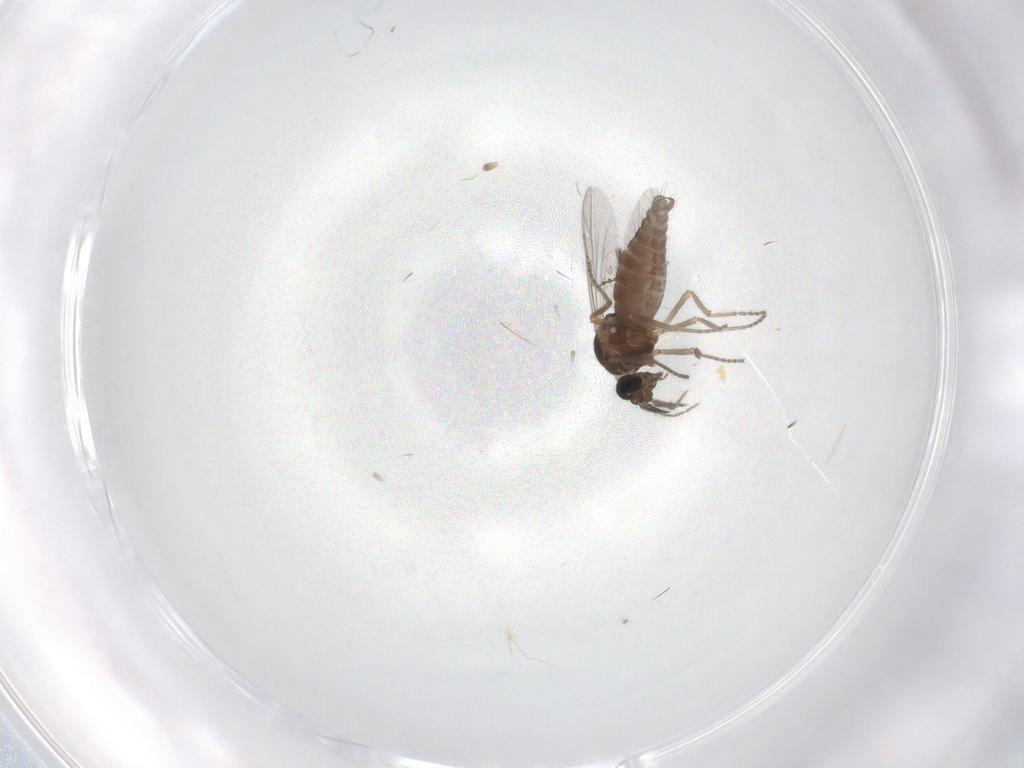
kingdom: Animalia
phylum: Arthropoda
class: Insecta
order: Diptera
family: Ceratopogonidae
